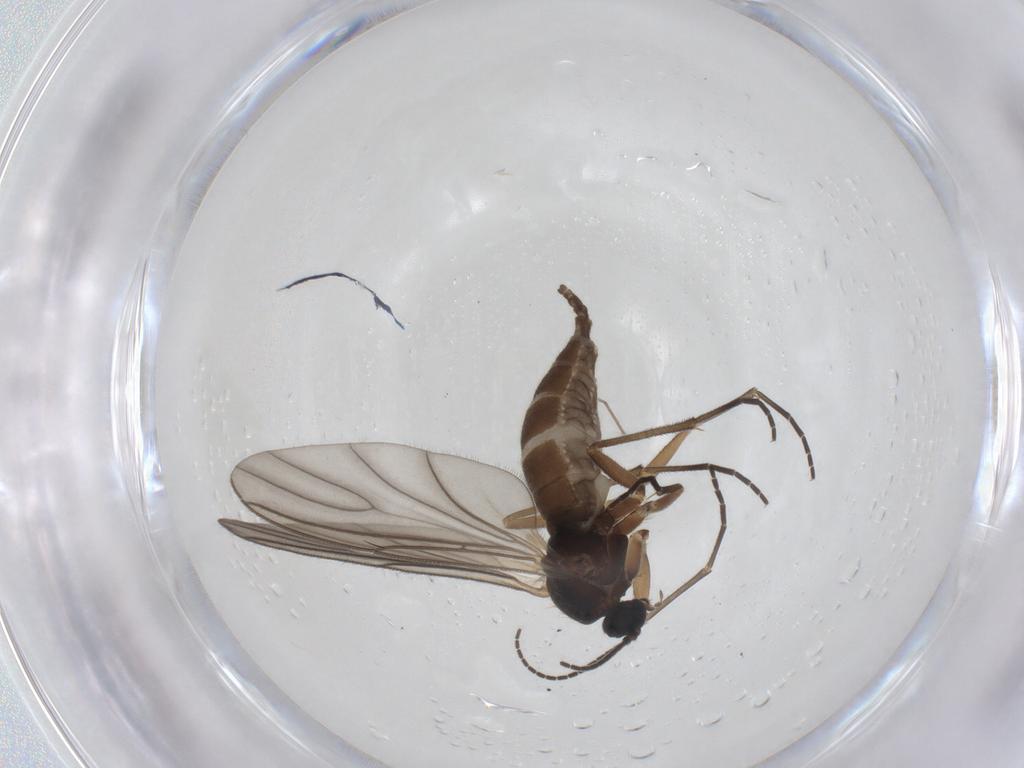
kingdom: Animalia
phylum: Arthropoda
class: Insecta
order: Diptera
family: Sciaridae
